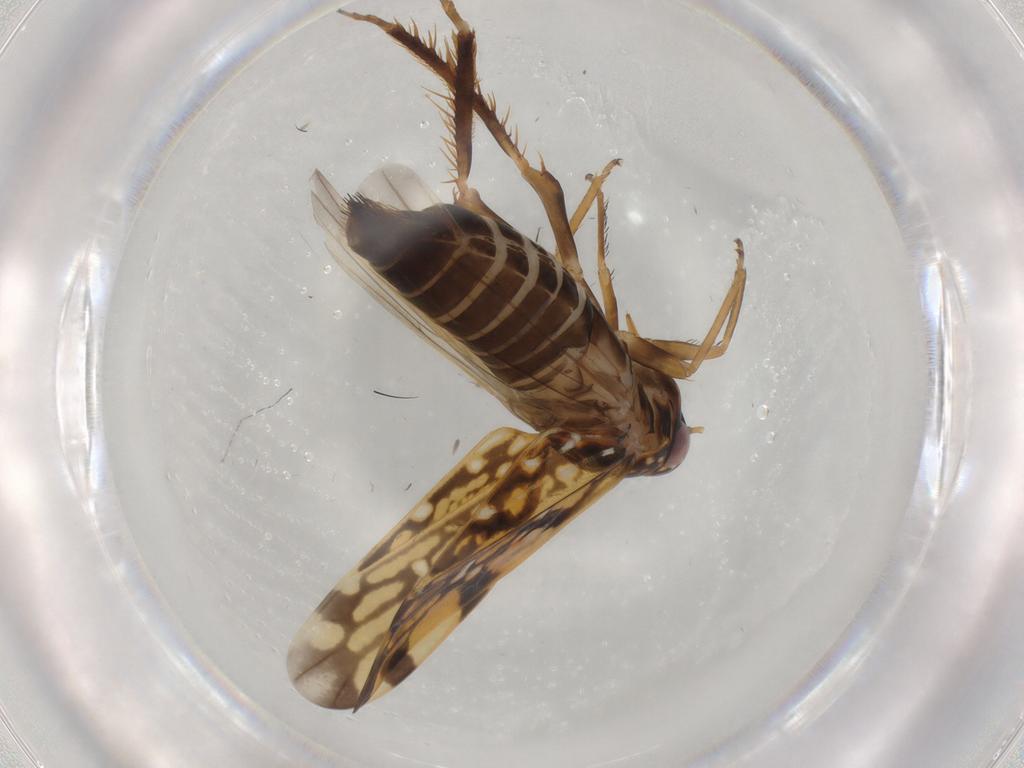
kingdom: Animalia
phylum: Arthropoda
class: Insecta
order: Hemiptera
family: Cicadellidae
